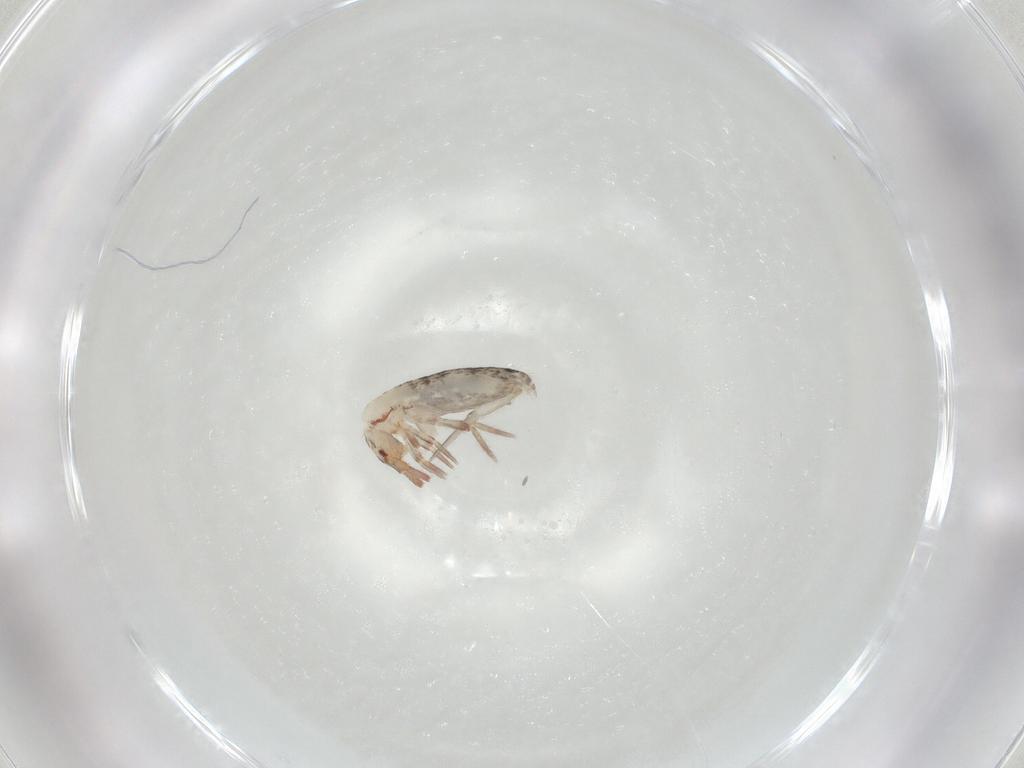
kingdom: Animalia
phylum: Arthropoda
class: Collembola
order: Entomobryomorpha
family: Entomobryidae
